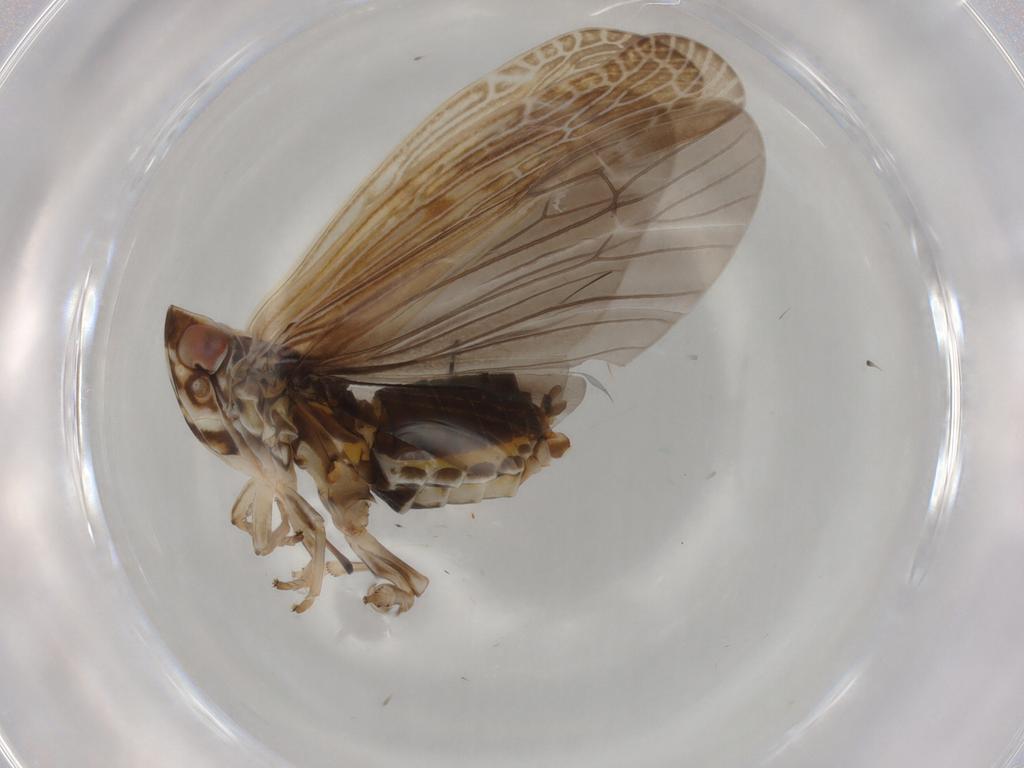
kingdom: Animalia
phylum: Arthropoda
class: Insecta
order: Hemiptera
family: Achilidae
